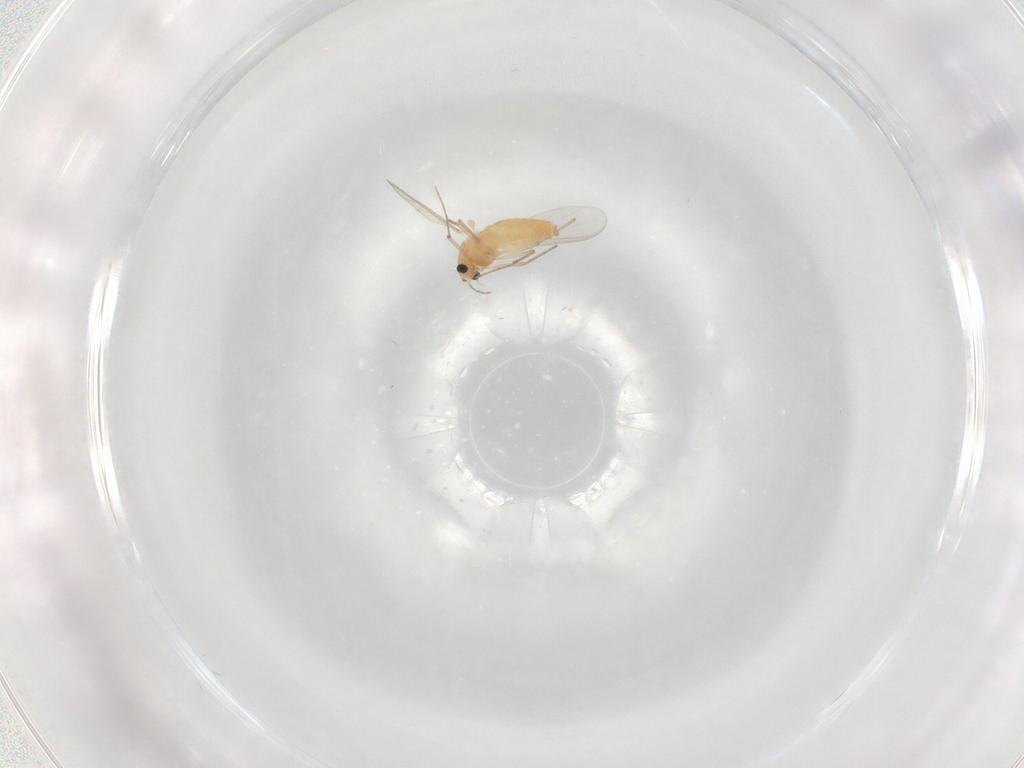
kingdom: Animalia
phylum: Arthropoda
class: Insecta
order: Diptera
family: Chironomidae
